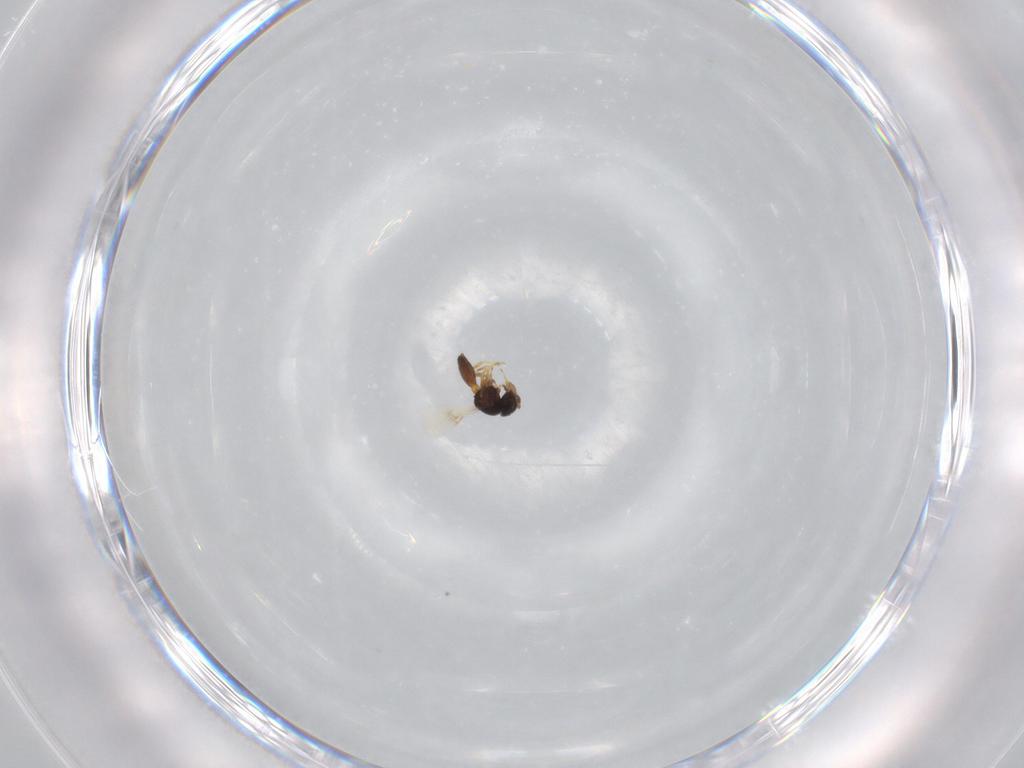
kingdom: Animalia
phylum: Arthropoda
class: Insecta
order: Hymenoptera
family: Scelionidae
